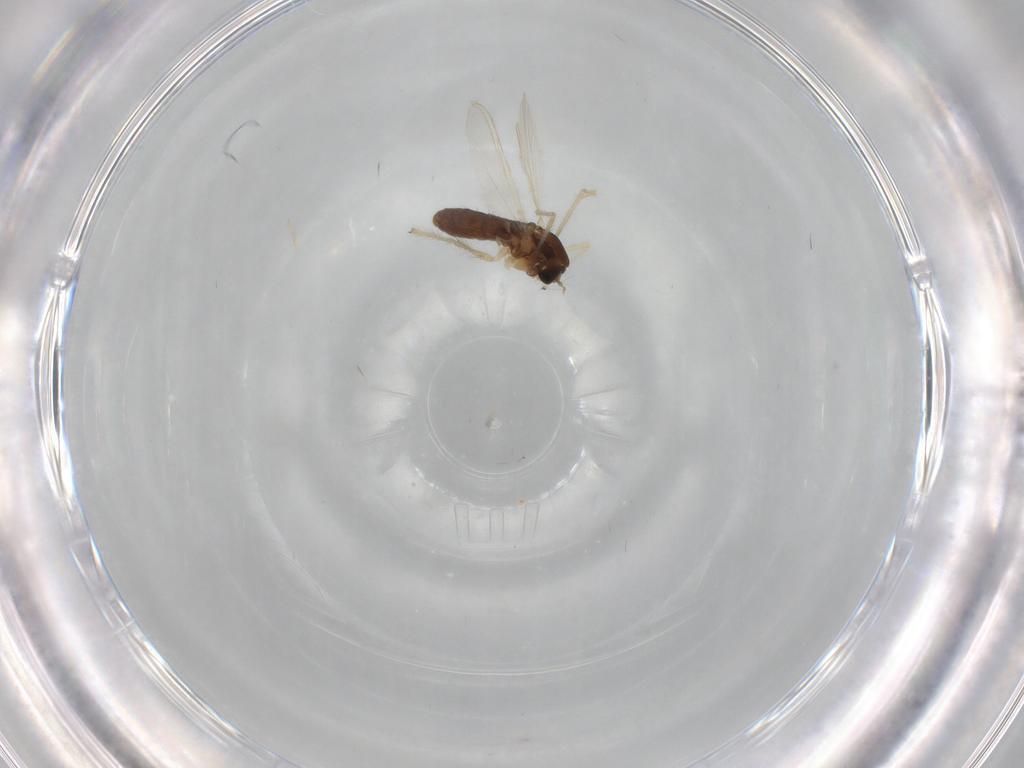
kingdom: Animalia
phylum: Arthropoda
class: Insecta
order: Diptera
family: Chironomidae
